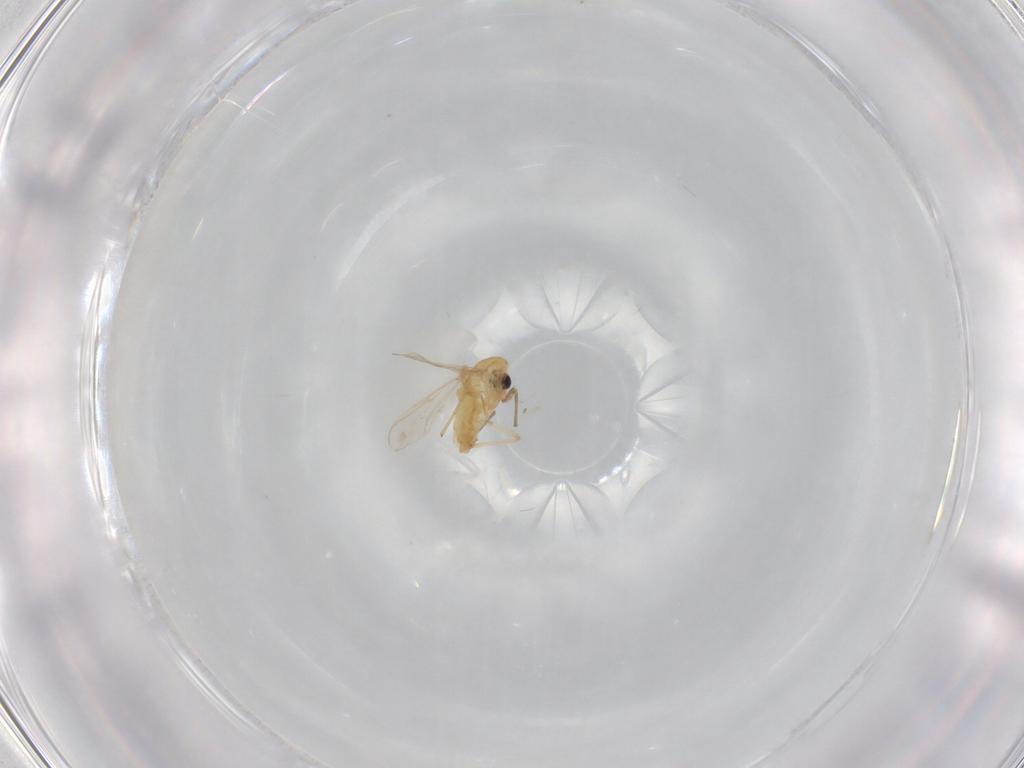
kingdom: Animalia
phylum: Arthropoda
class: Insecta
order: Diptera
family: Chironomidae
